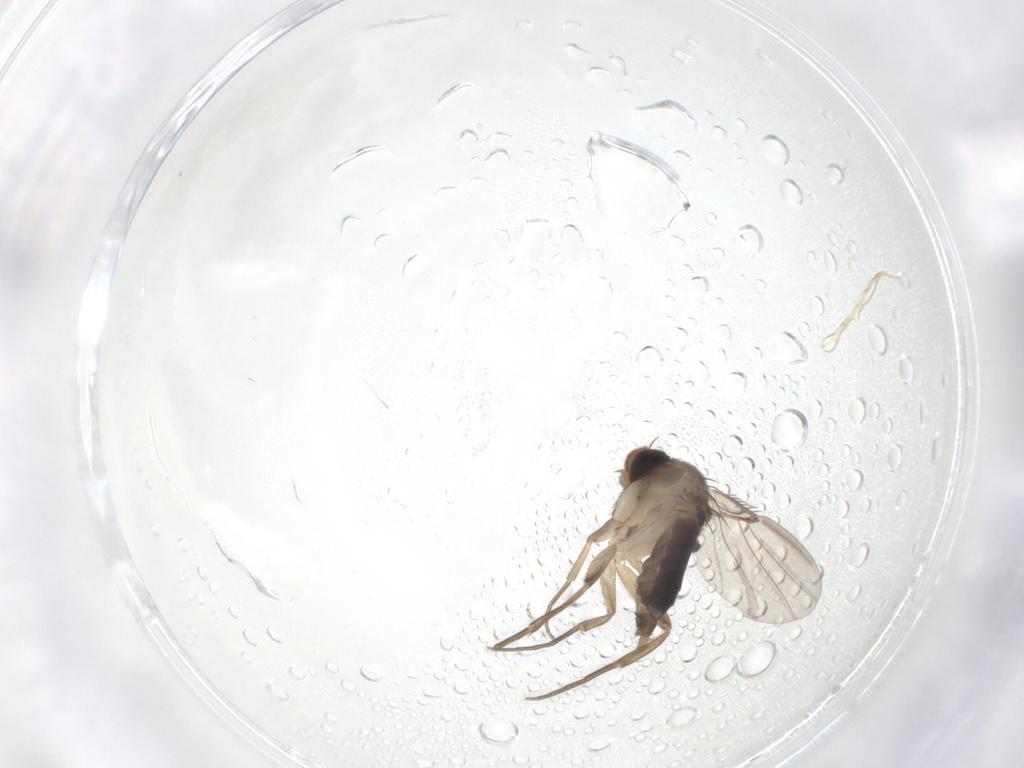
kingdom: Animalia
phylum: Arthropoda
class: Insecta
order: Diptera
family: Phoridae
